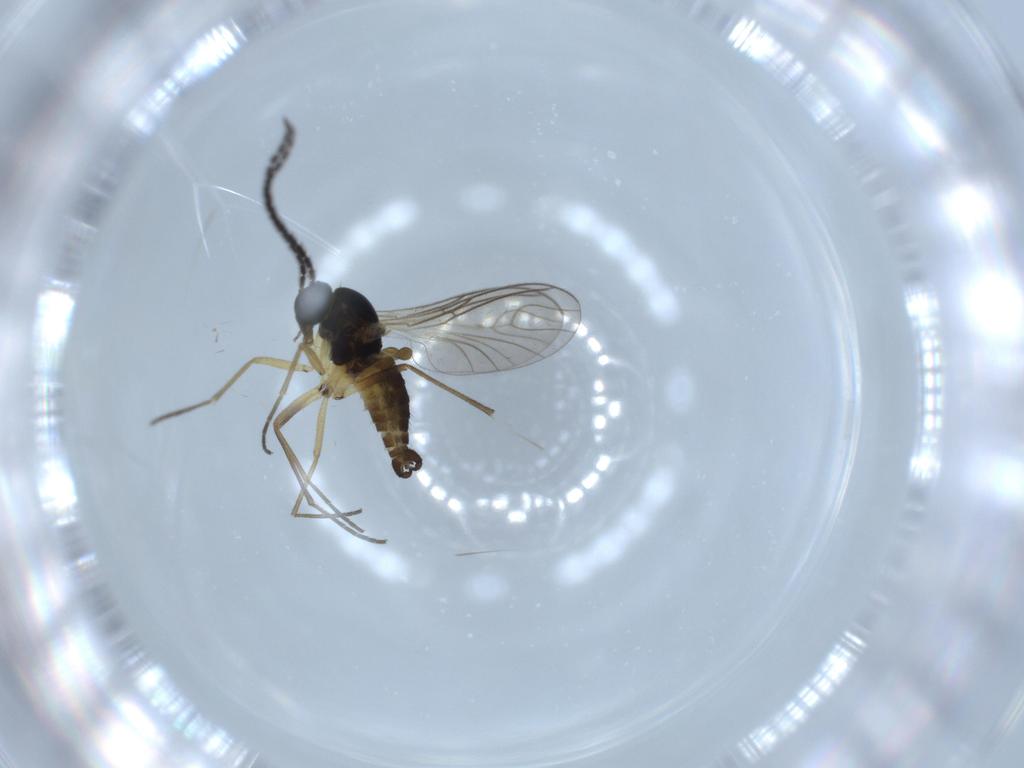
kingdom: Animalia
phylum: Arthropoda
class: Insecta
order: Diptera
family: Sciaridae
